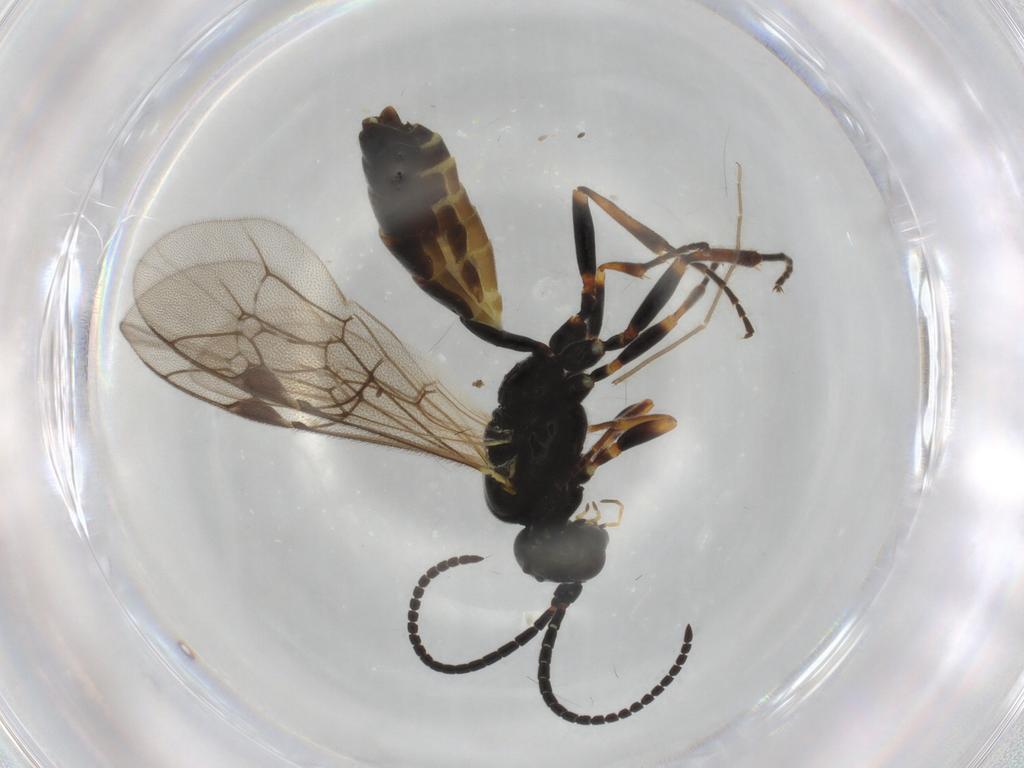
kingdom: Animalia
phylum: Arthropoda
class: Insecta
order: Hymenoptera
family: Ichneumonidae
